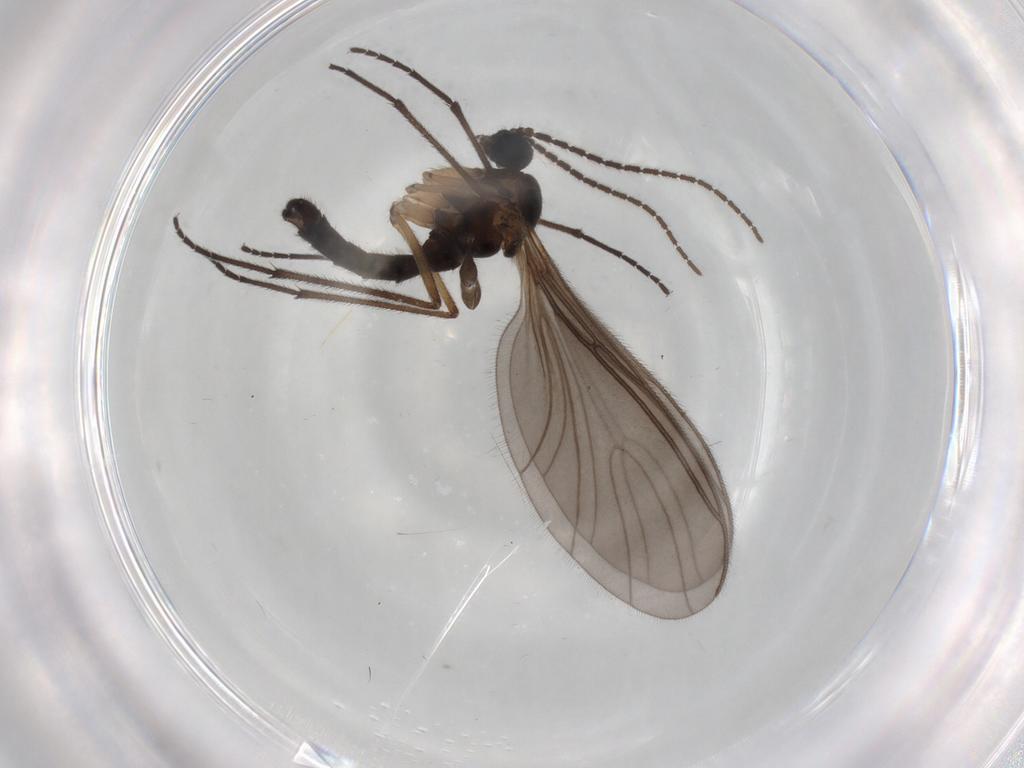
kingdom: Animalia
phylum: Arthropoda
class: Insecta
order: Diptera
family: Sciaridae
